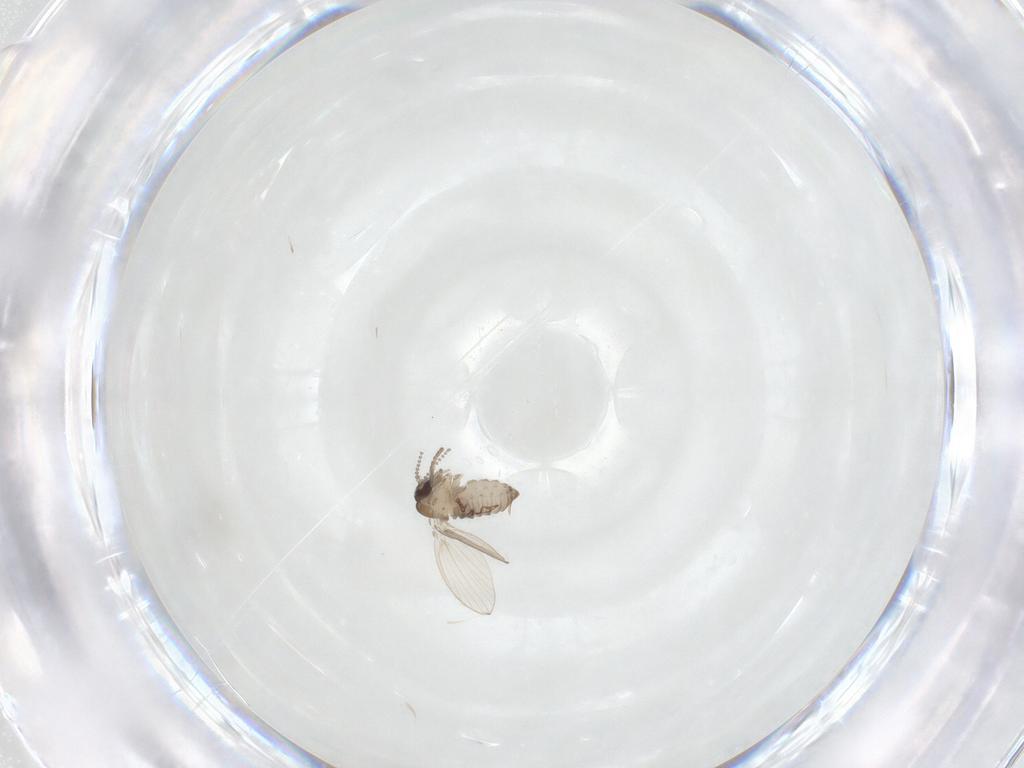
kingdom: Animalia
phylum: Arthropoda
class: Insecta
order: Diptera
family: Psychodidae
